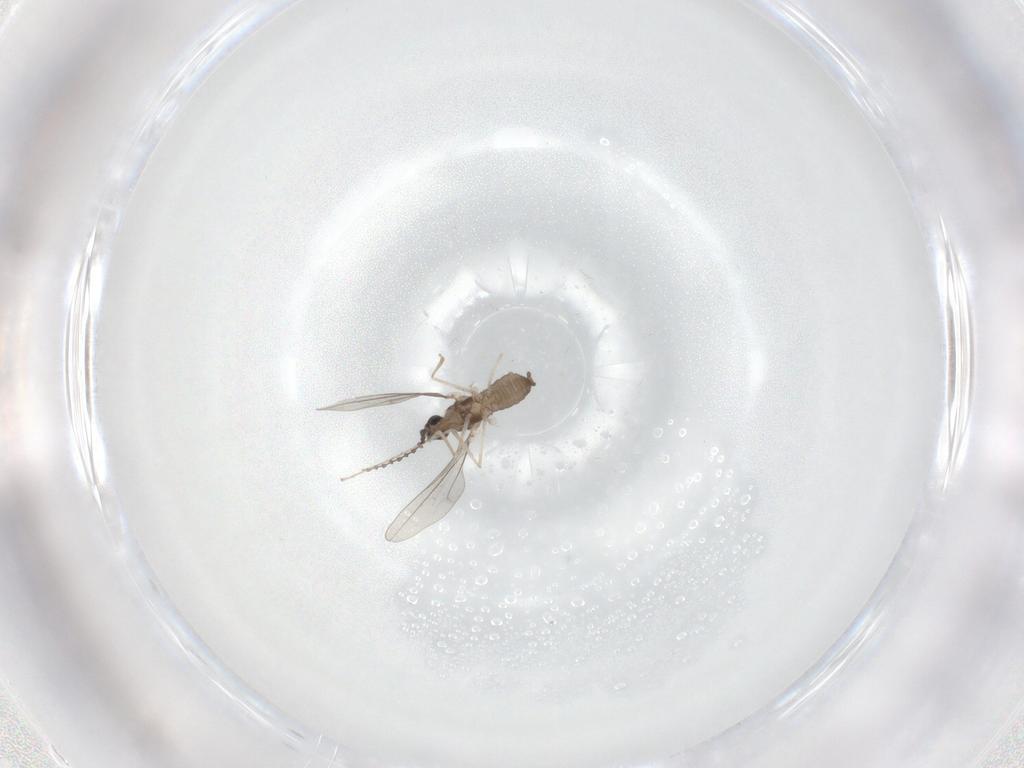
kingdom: Animalia
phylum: Arthropoda
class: Insecta
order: Diptera
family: Cecidomyiidae
